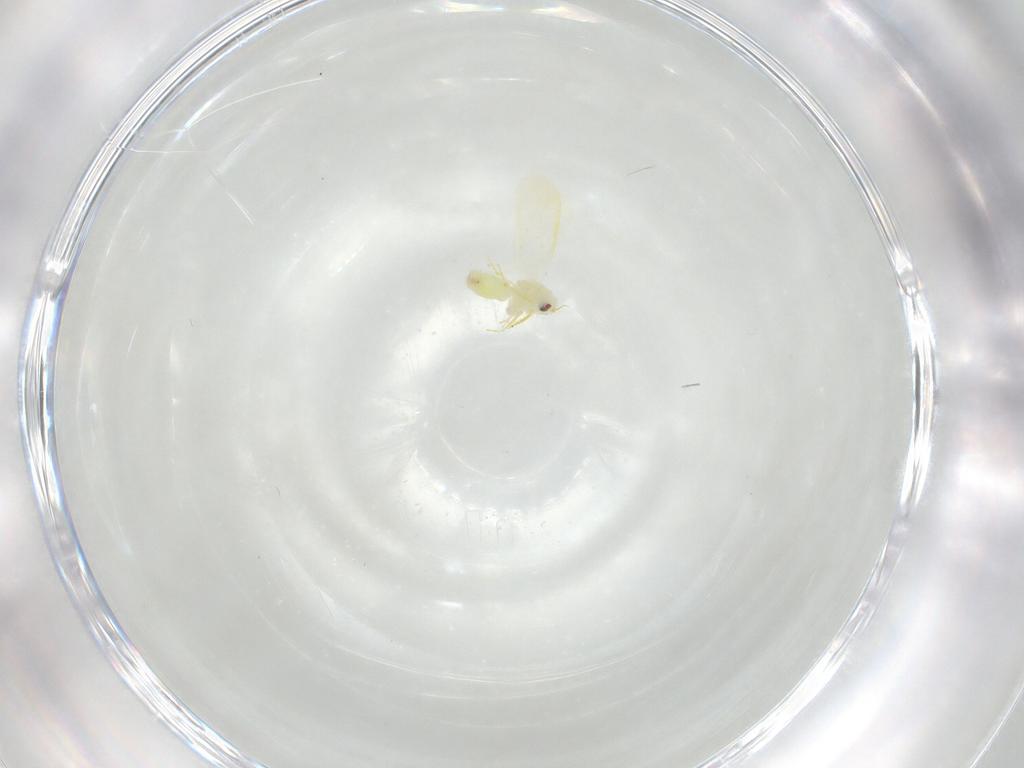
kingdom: Animalia
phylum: Arthropoda
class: Insecta
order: Hemiptera
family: Aleyrodidae
